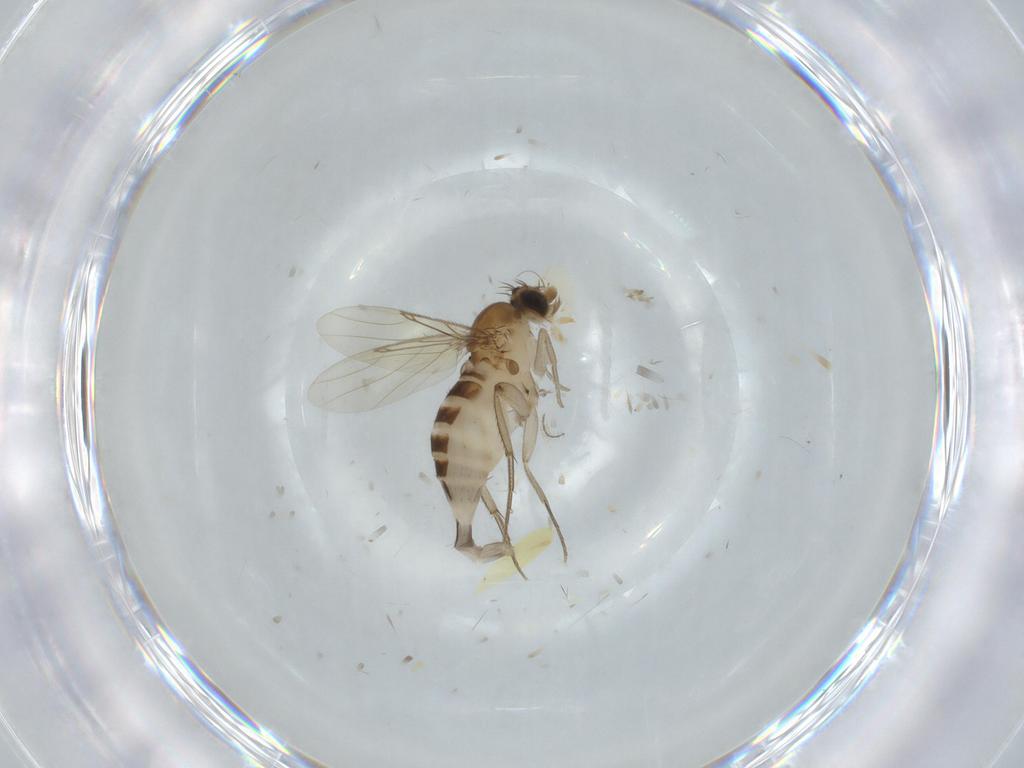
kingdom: Animalia
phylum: Arthropoda
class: Insecta
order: Diptera
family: Phoridae
